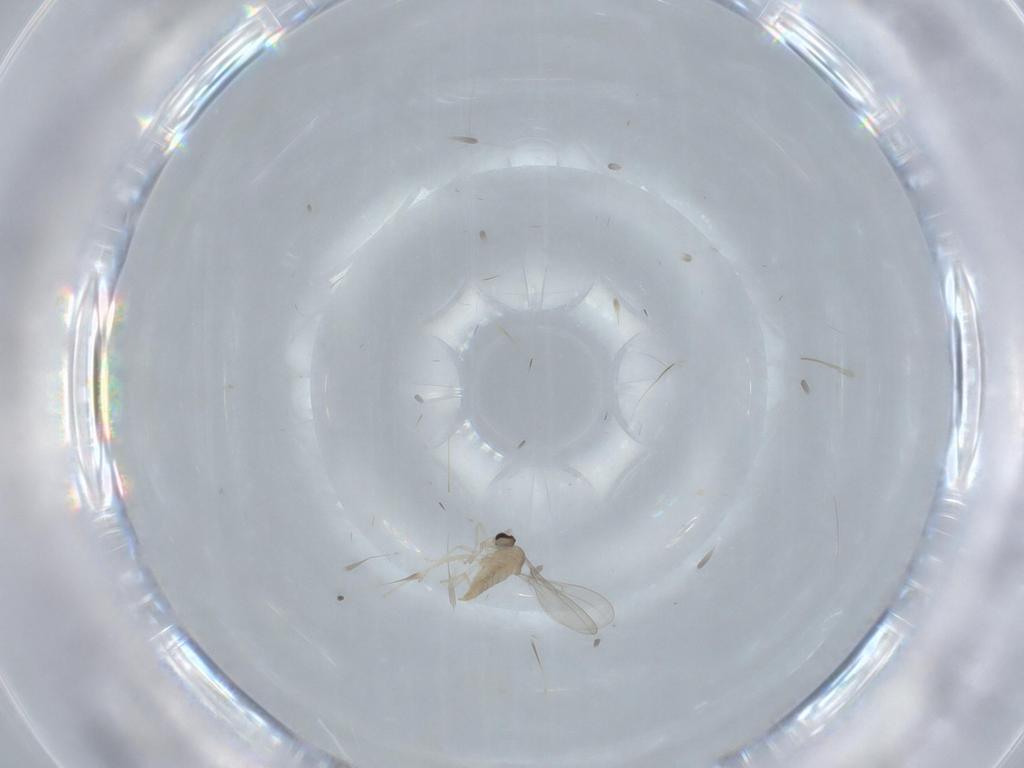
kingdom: Animalia
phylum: Arthropoda
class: Insecta
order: Diptera
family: Cecidomyiidae
